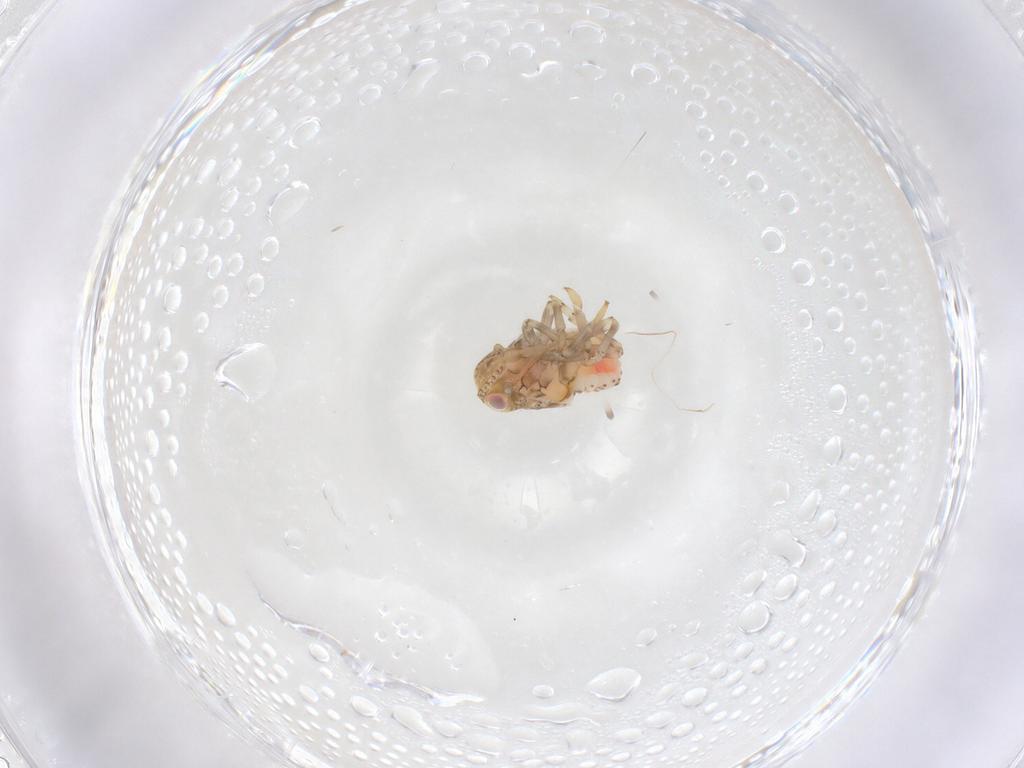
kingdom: Animalia
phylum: Arthropoda
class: Insecta
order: Hemiptera
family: Nogodinidae
